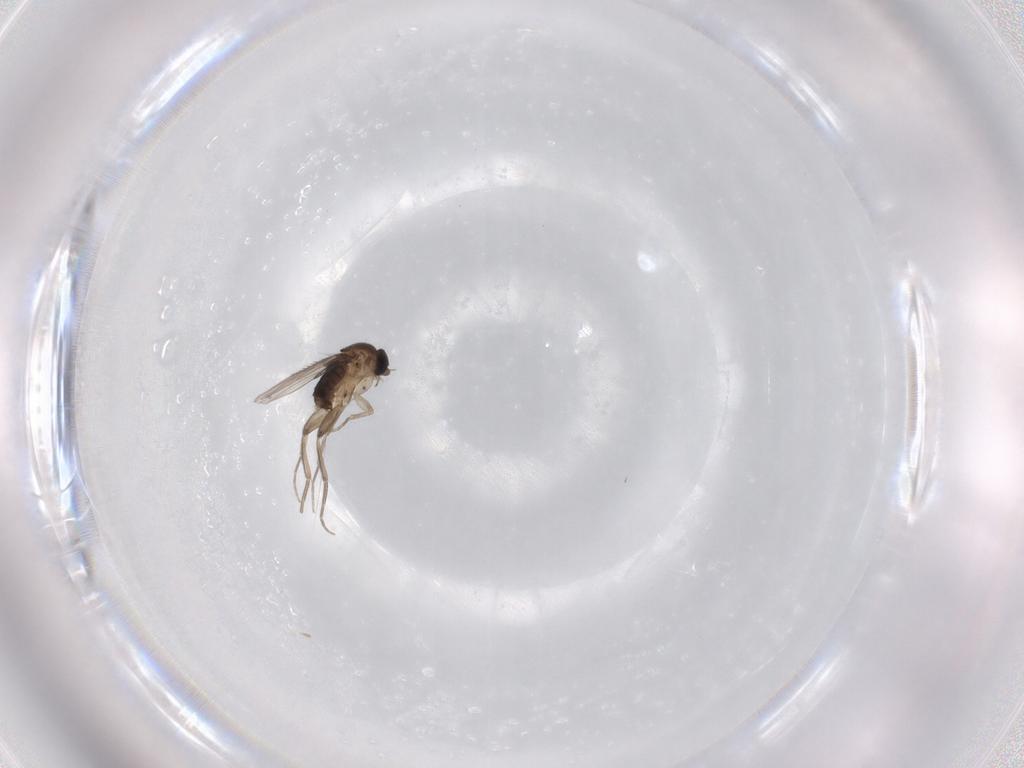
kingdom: Animalia
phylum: Arthropoda
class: Insecta
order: Diptera
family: Phoridae
